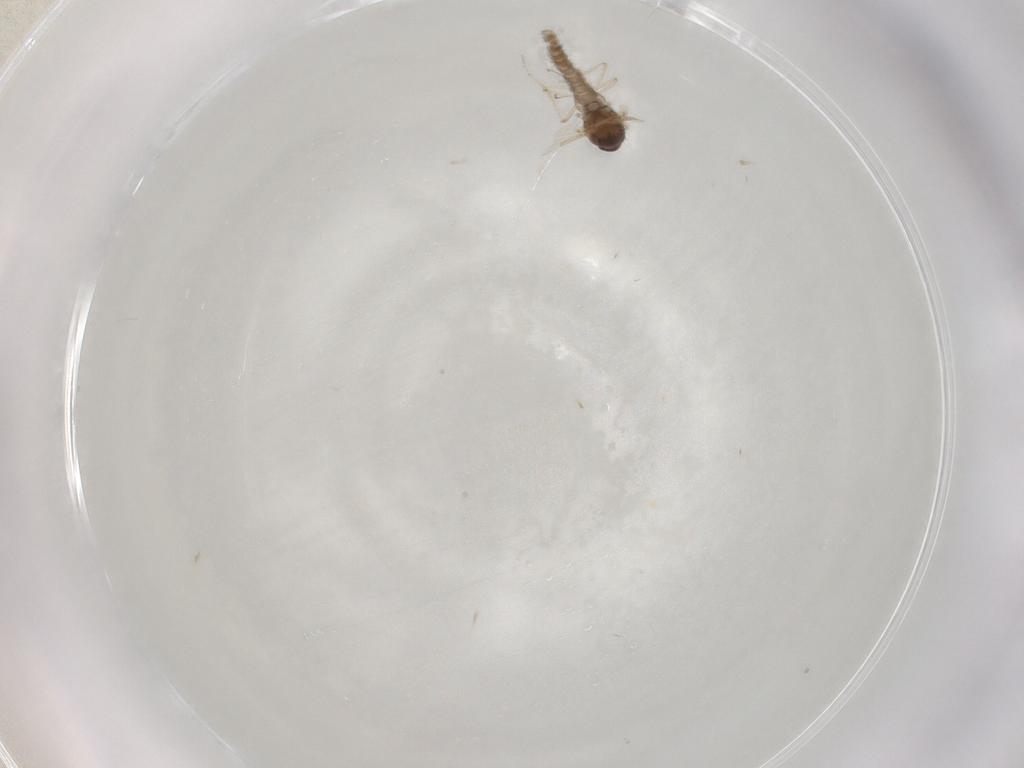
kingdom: Animalia
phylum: Arthropoda
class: Insecta
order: Diptera
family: Ceratopogonidae
